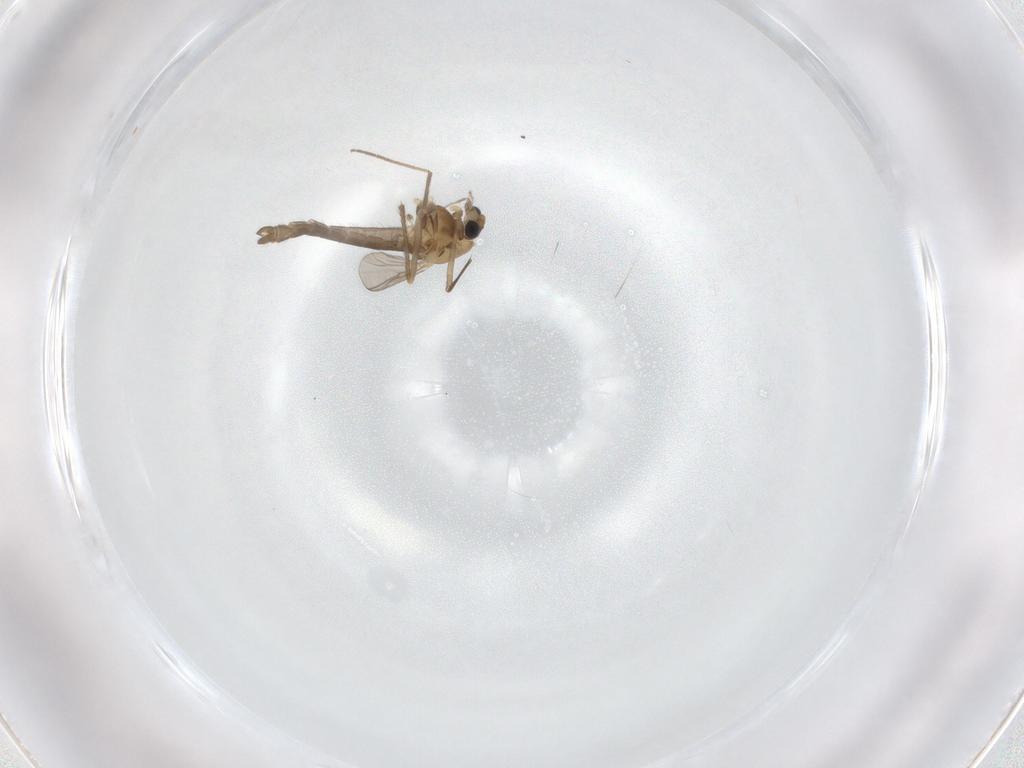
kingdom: Animalia
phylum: Arthropoda
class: Insecta
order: Diptera
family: Chironomidae
